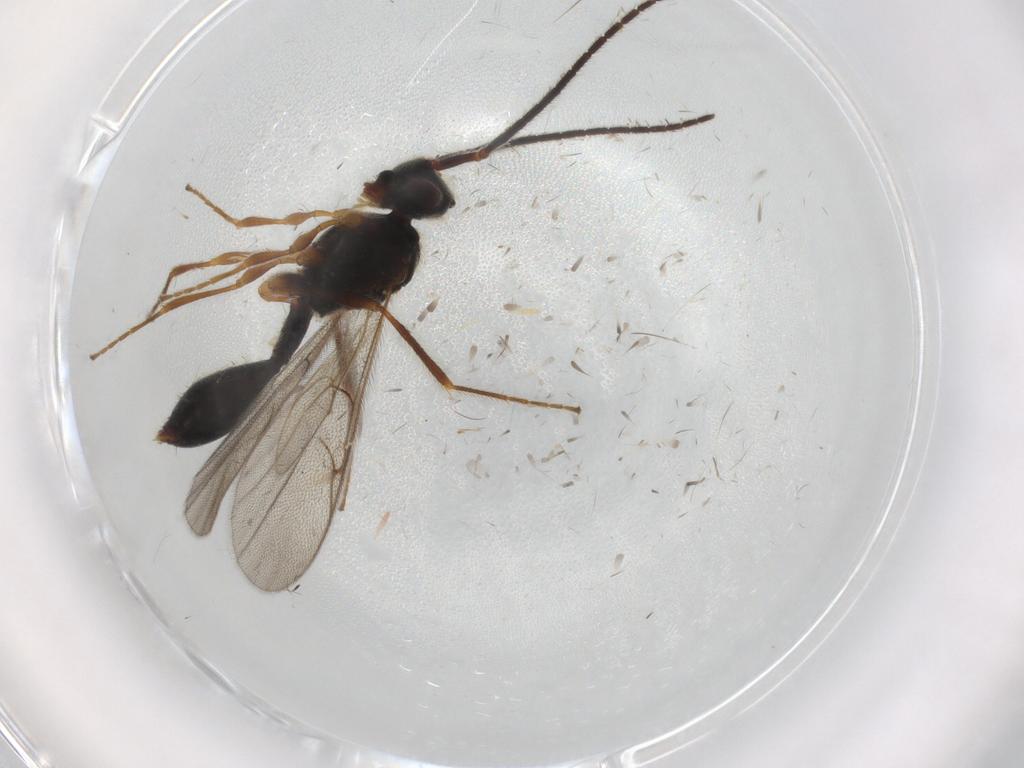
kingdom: Animalia
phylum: Arthropoda
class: Insecta
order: Hymenoptera
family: Diapriidae
